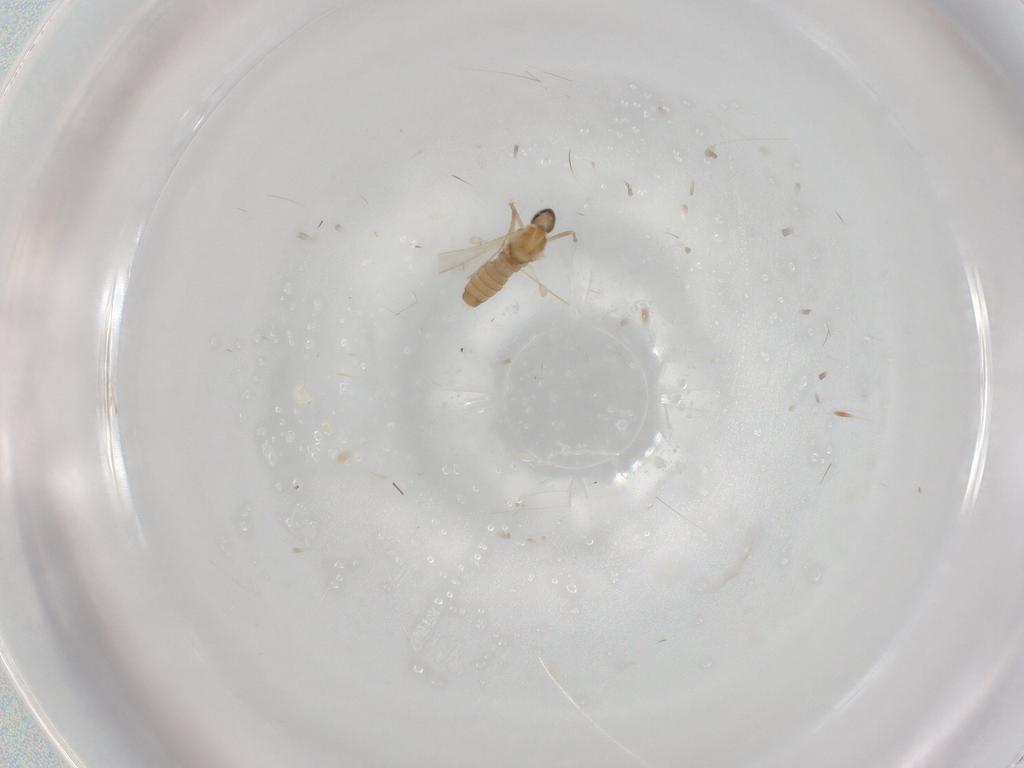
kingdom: Animalia
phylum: Arthropoda
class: Insecta
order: Diptera
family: Cecidomyiidae
